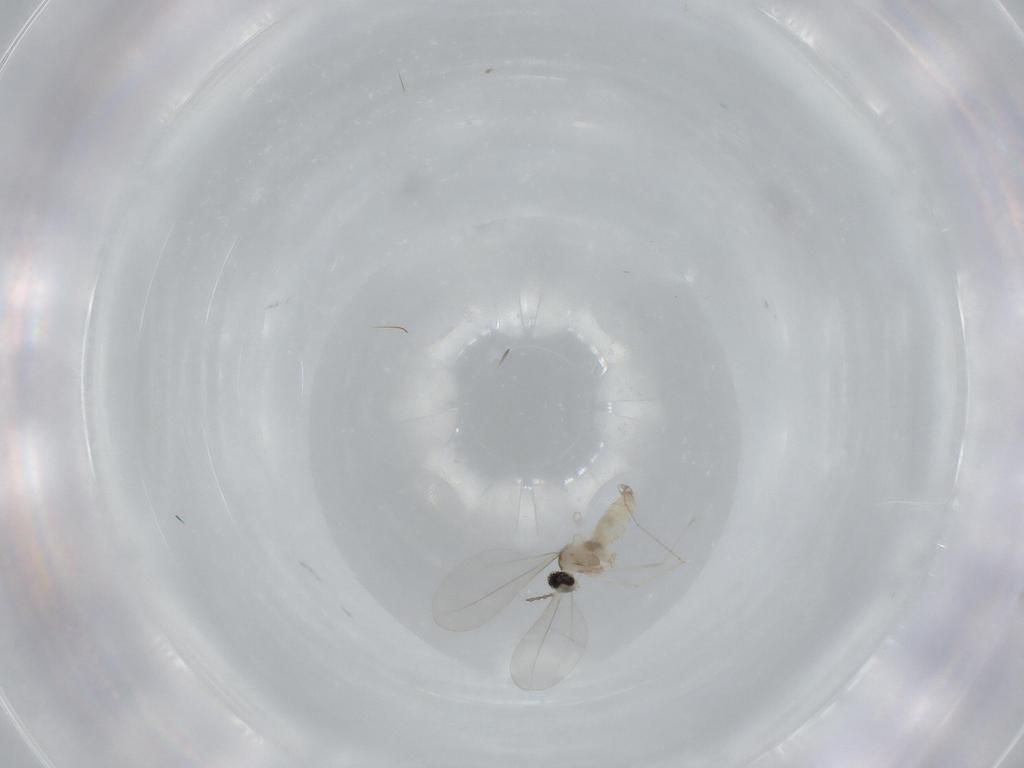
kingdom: Animalia
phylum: Arthropoda
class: Insecta
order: Diptera
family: Cecidomyiidae
